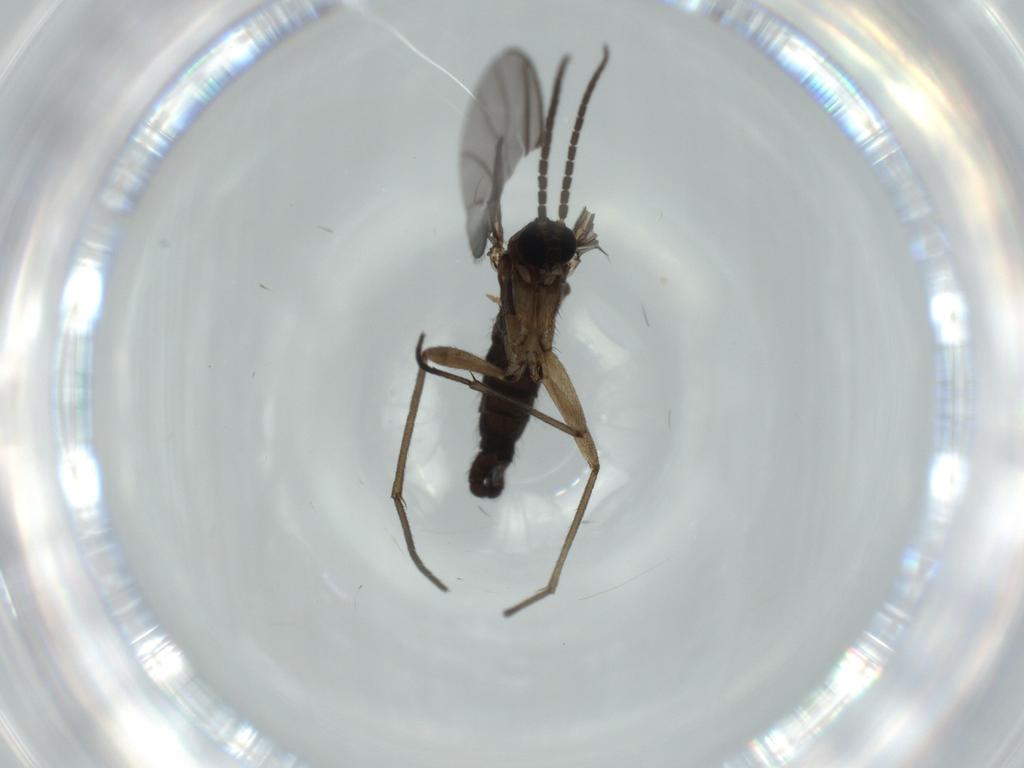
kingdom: Animalia
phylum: Arthropoda
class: Insecta
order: Diptera
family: Sciaridae
